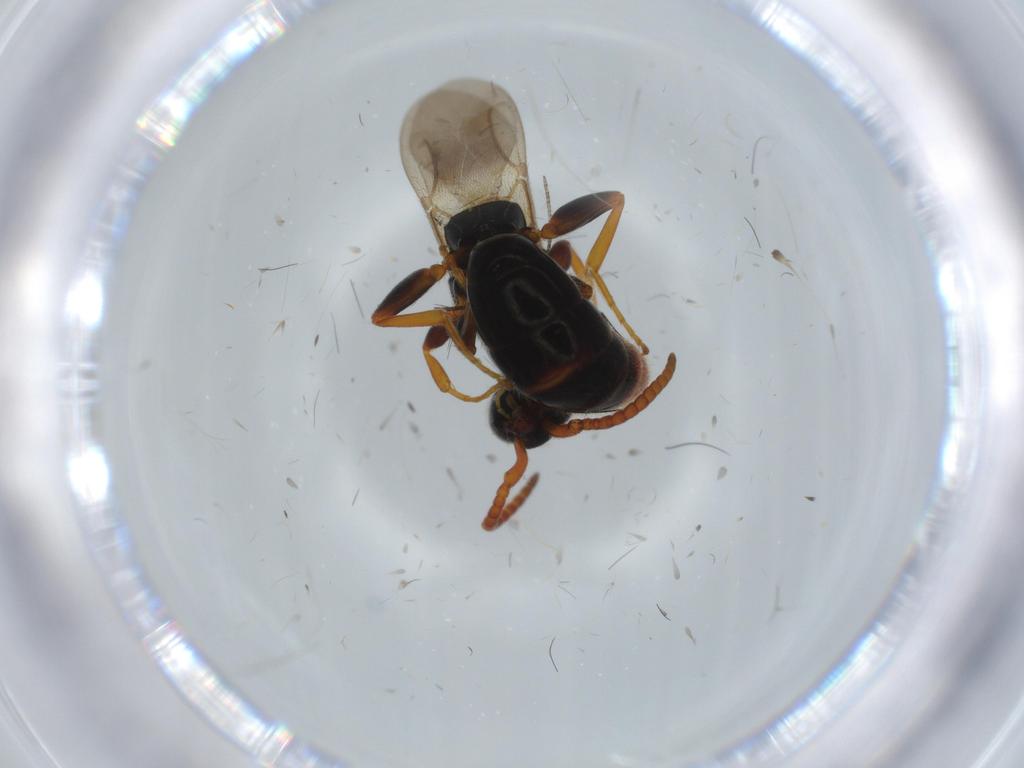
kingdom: Animalia
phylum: Arthropoda
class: Insecta
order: Hymenoptera
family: Bethylidae
